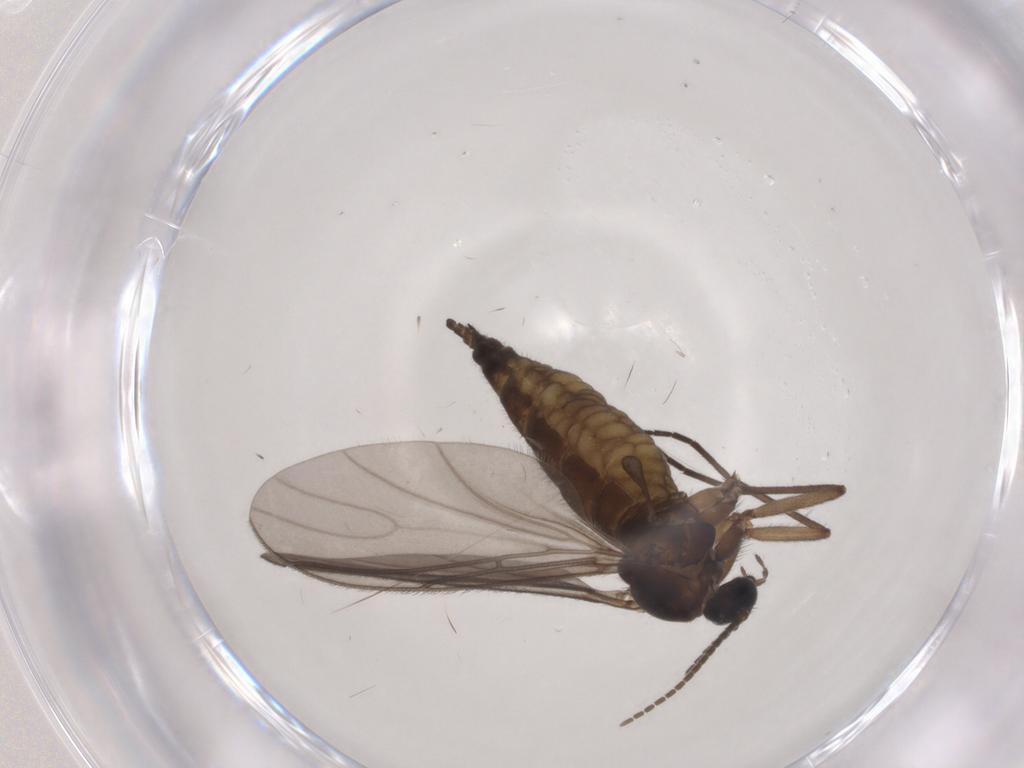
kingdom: Animalia
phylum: Arthropoda
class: Insecta
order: Diptera
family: Sciaridae
